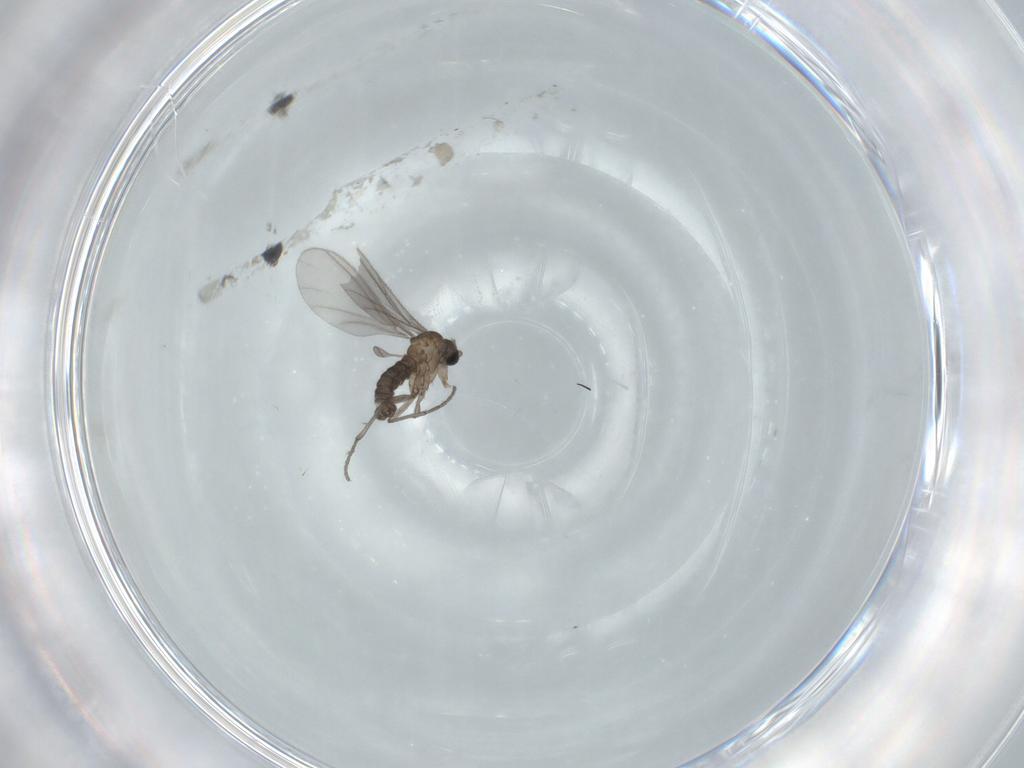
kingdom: Animalia
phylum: Arthropoda
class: Insecta
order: Diptera
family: Sciaridae
